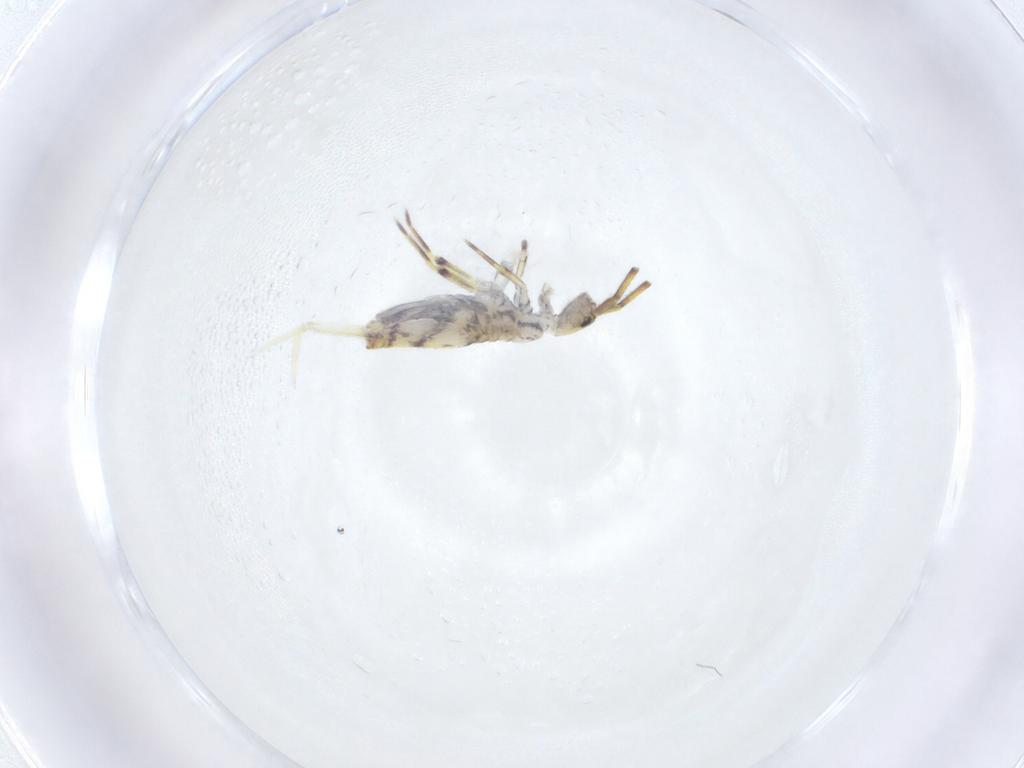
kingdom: Animalia
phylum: Arthropoda
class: Collembola
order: Entomobryomorpha
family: Entomobryidae
